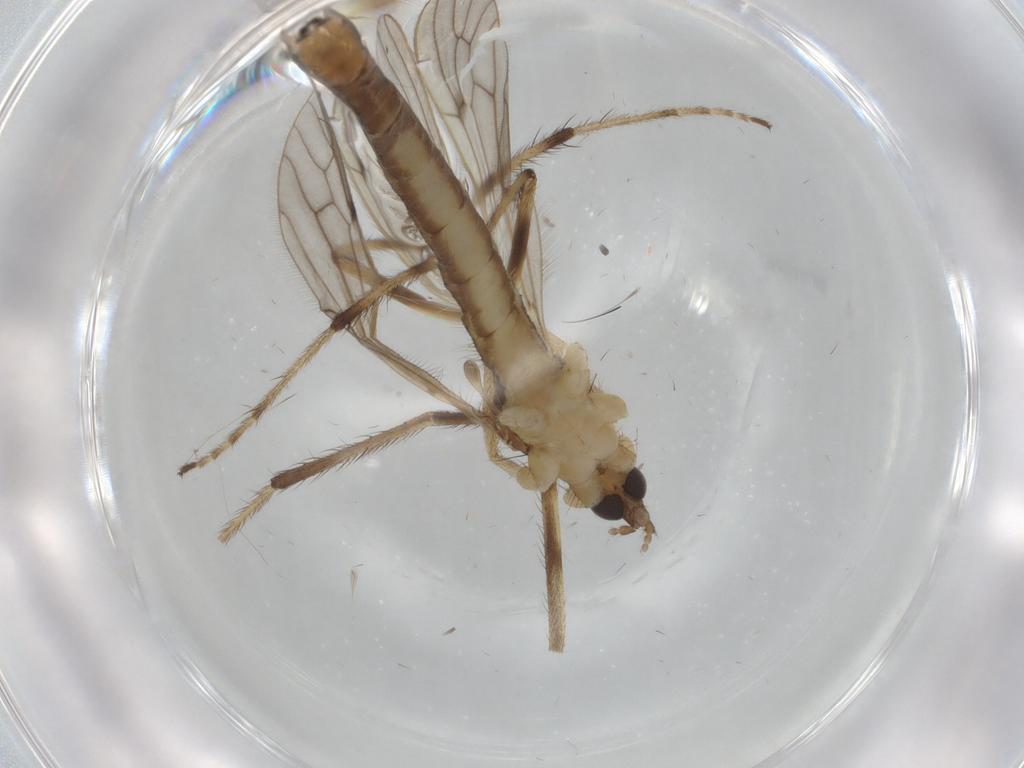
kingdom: Animalia
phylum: Arthropoda
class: Insecta
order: Diptera
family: Limoniidae
